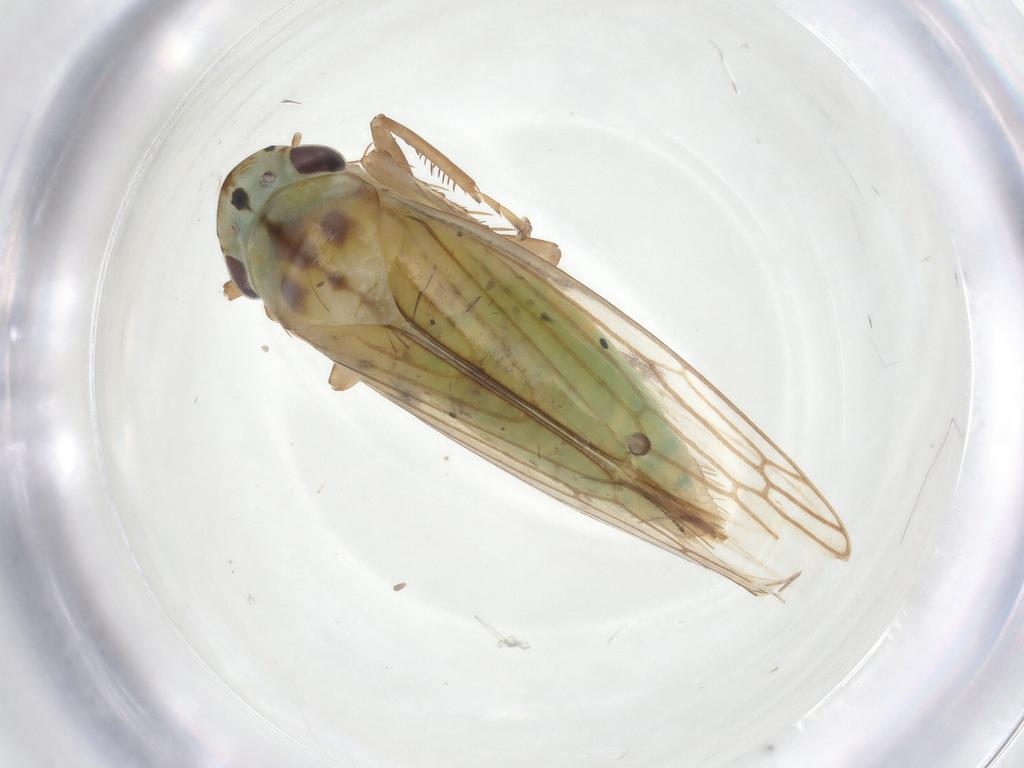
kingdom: Animalia
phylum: Arthropoda
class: Insecta
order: Hemiptera
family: Cicadellidae
